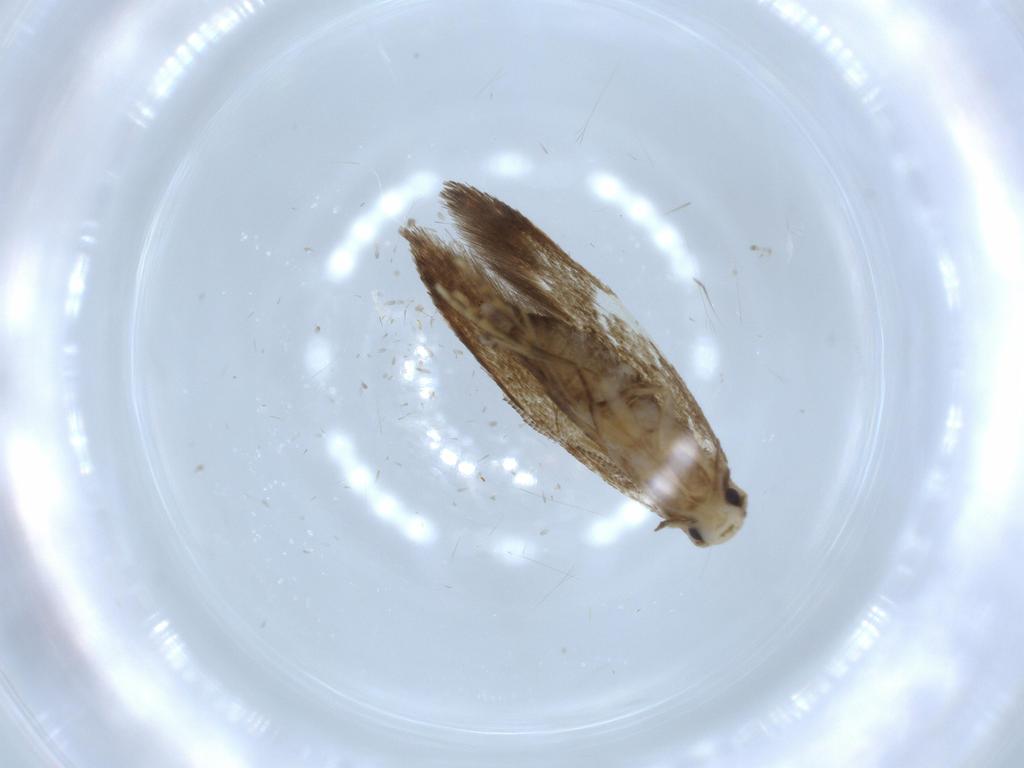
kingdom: Animalia
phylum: Arthropoda
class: Insecta
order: Lepidoptera
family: Tineidae
